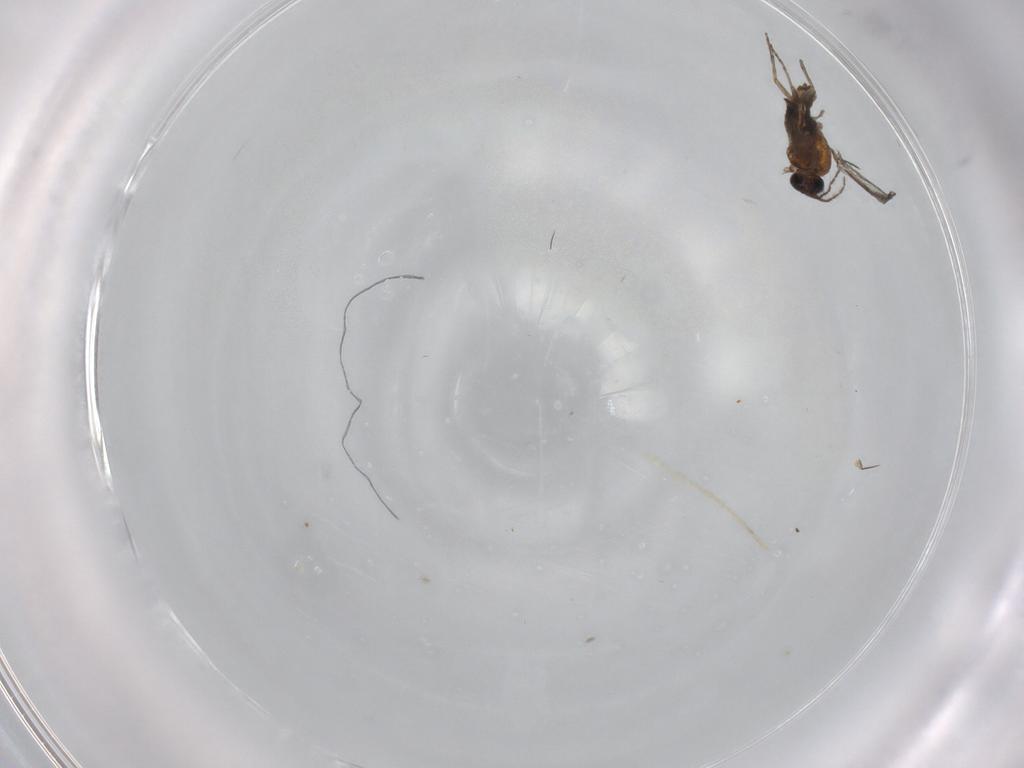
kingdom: Animalia
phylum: Arthropoda
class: Insecta
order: Diptera
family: Ceratopogonidae
